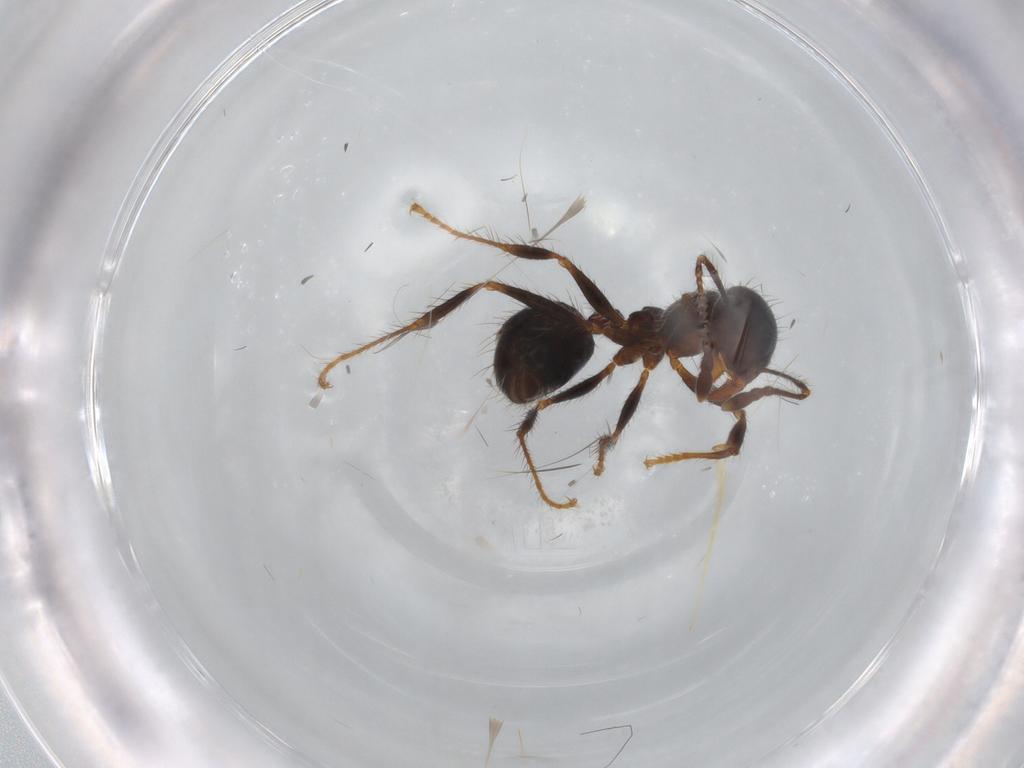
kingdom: Animalia
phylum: Arthropoda
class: Insecta
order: Hymenoptera
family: Formicidae
